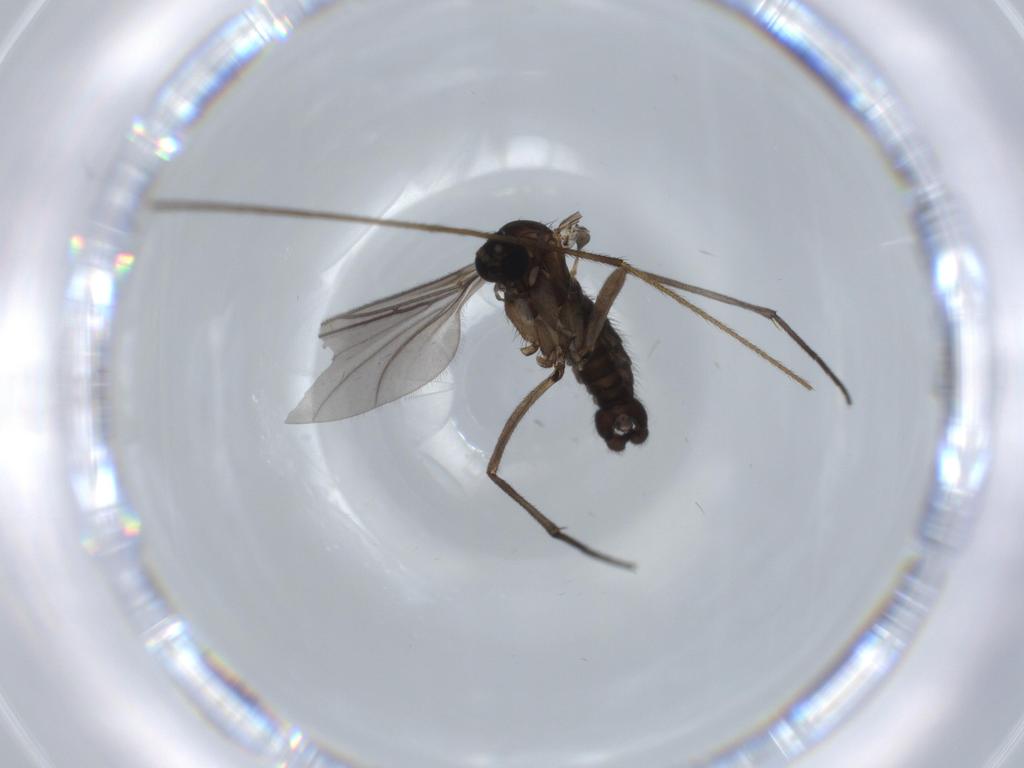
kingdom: Animalia
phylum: Arthropoda
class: Insecta
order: Diptera
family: Sciaridae
